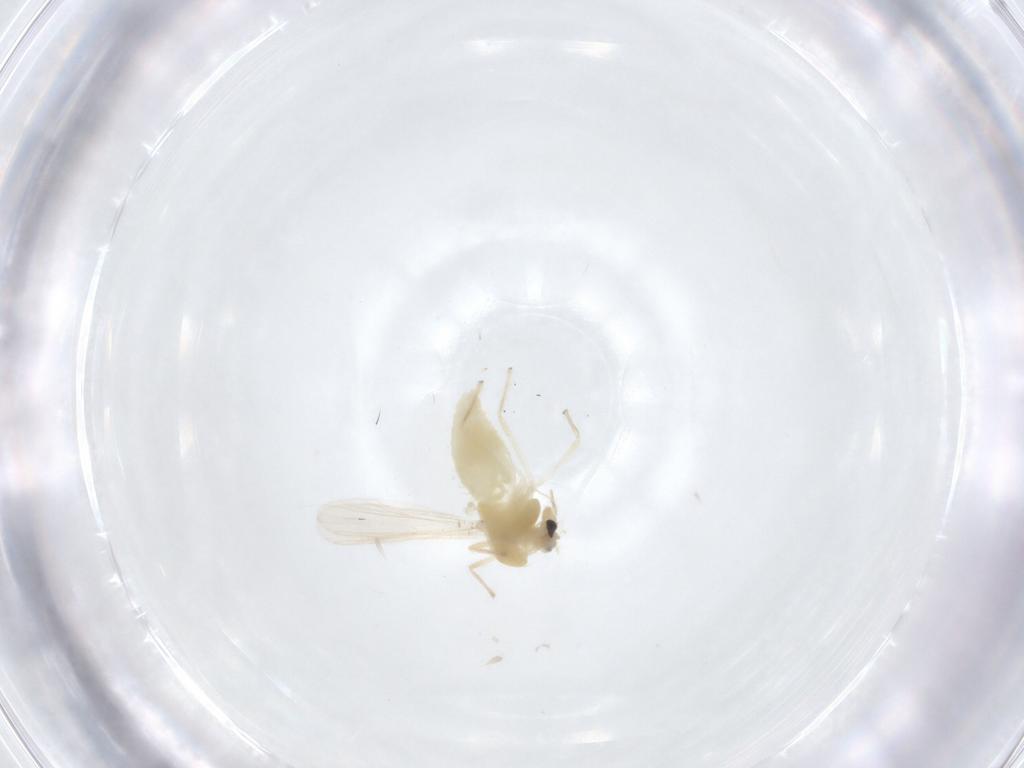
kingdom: Animalia
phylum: Arthropoda
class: Insecta
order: Diptera
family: Chironomidae
